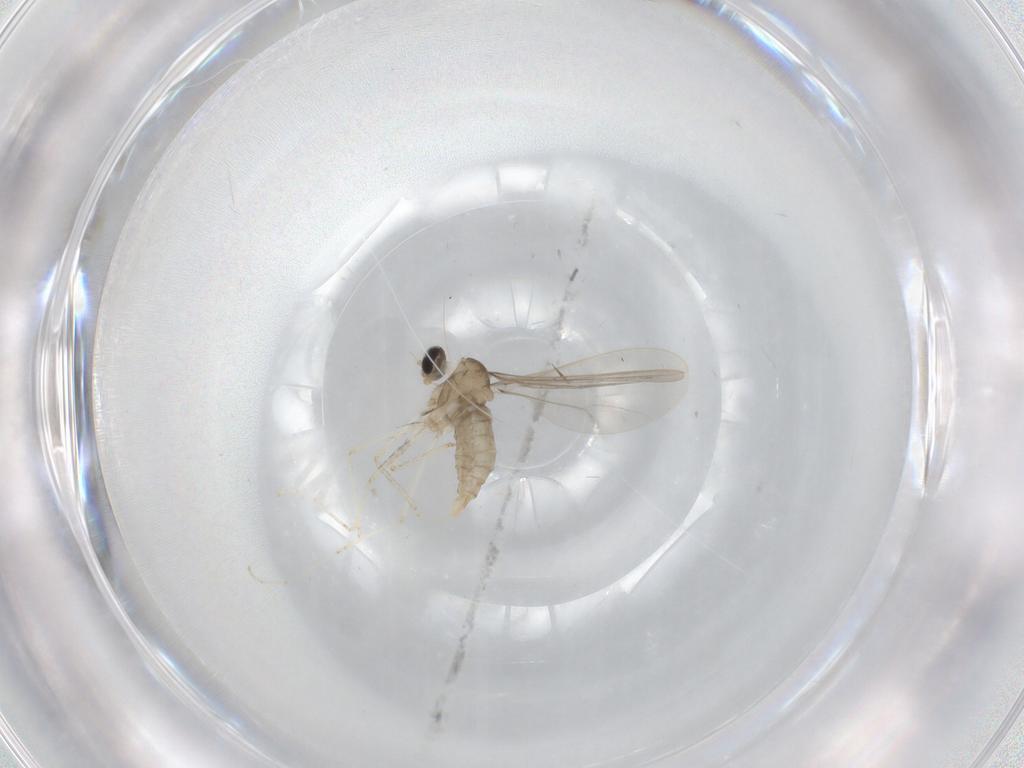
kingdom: Animalia
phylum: Arthropoda
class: Insecta
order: Diptera
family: Cecidomyiidae
